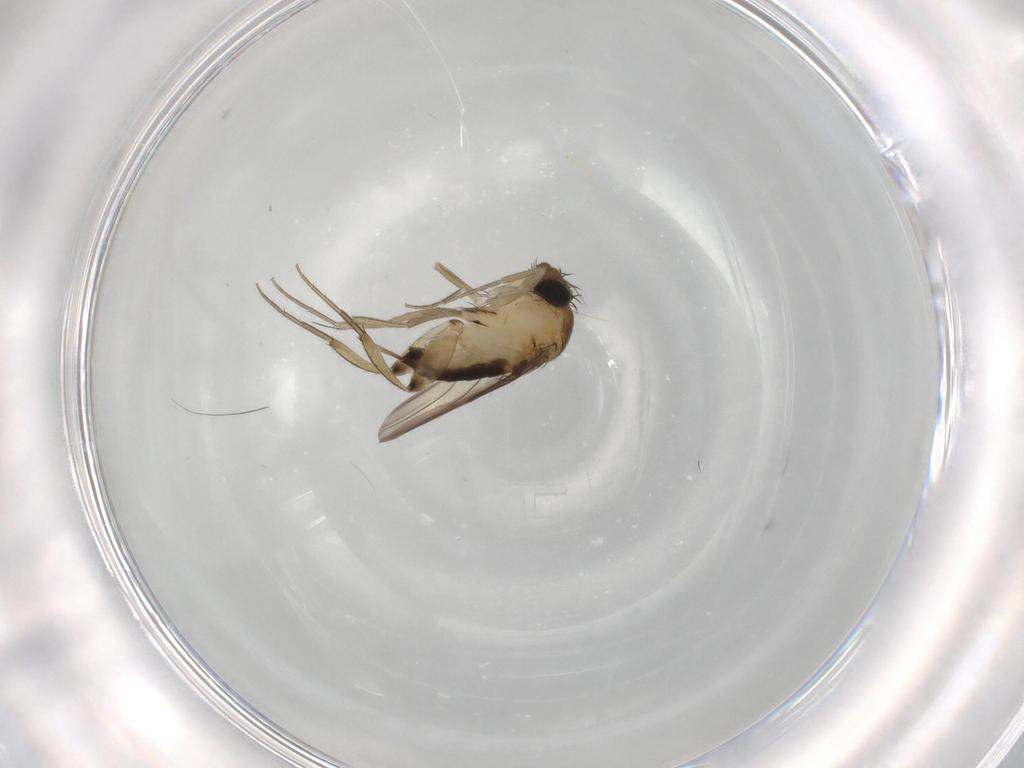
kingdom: Animalia
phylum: Arthropoda
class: Insecta
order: Diptera
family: Phoridae
